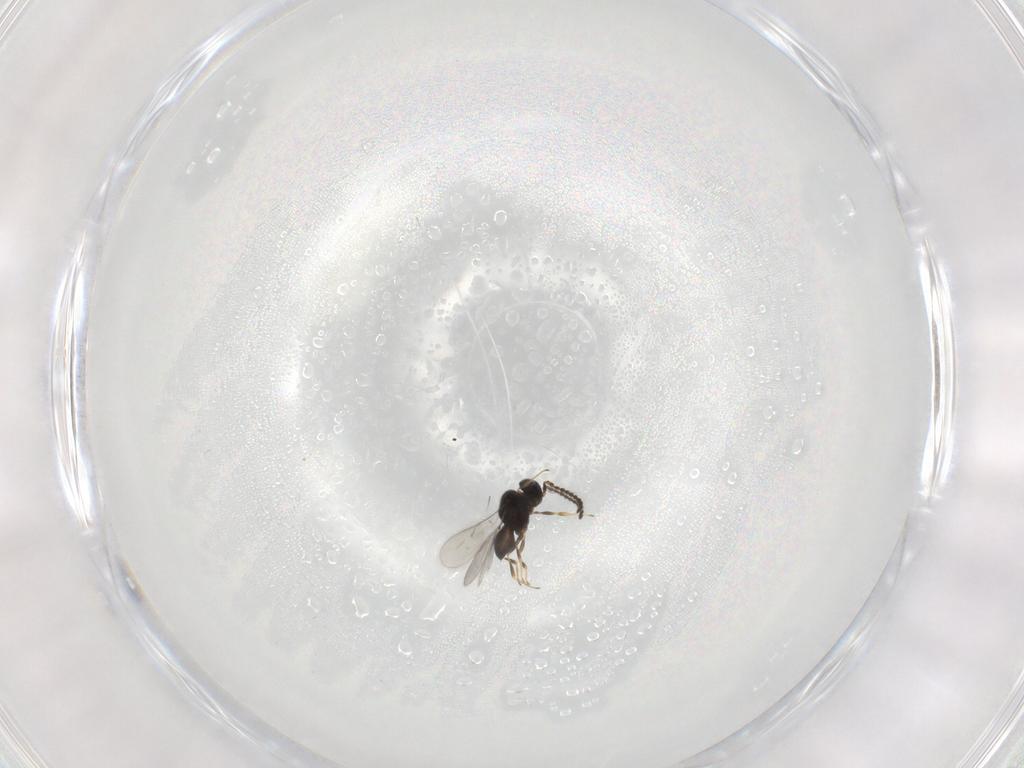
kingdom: Animalia
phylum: Arthropoda
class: Insecta
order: Hymenoptera
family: Scelionidae
